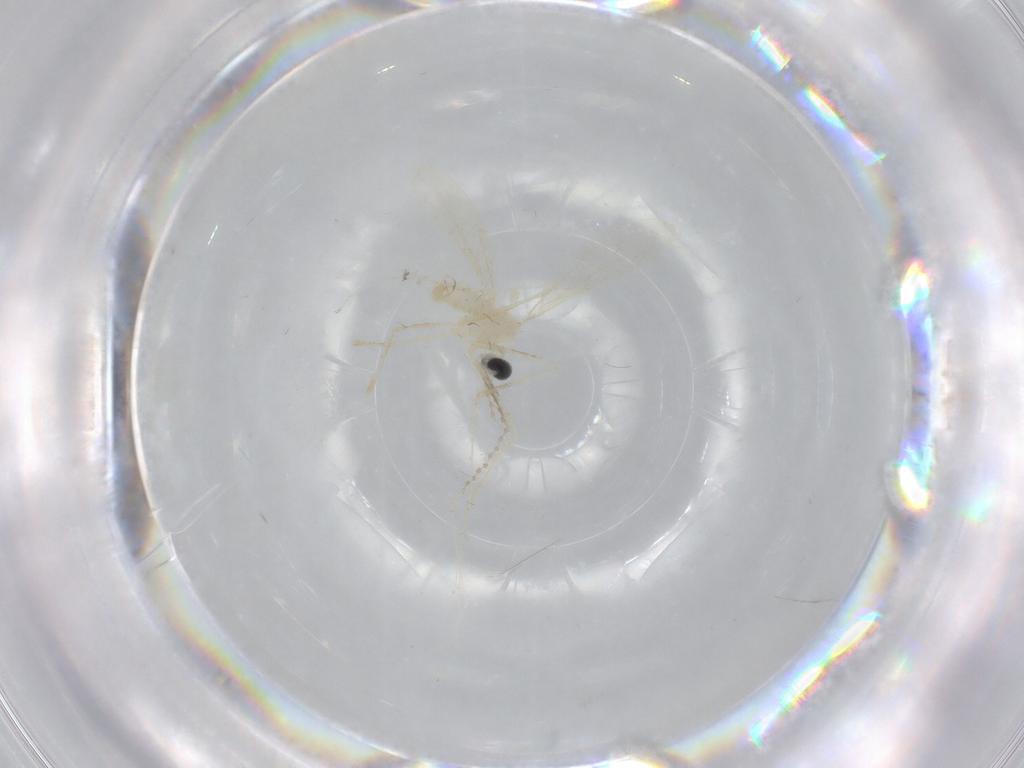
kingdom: Animalia
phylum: Arthropoda
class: Insecta
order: Diptera
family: Cecidomyiidae
